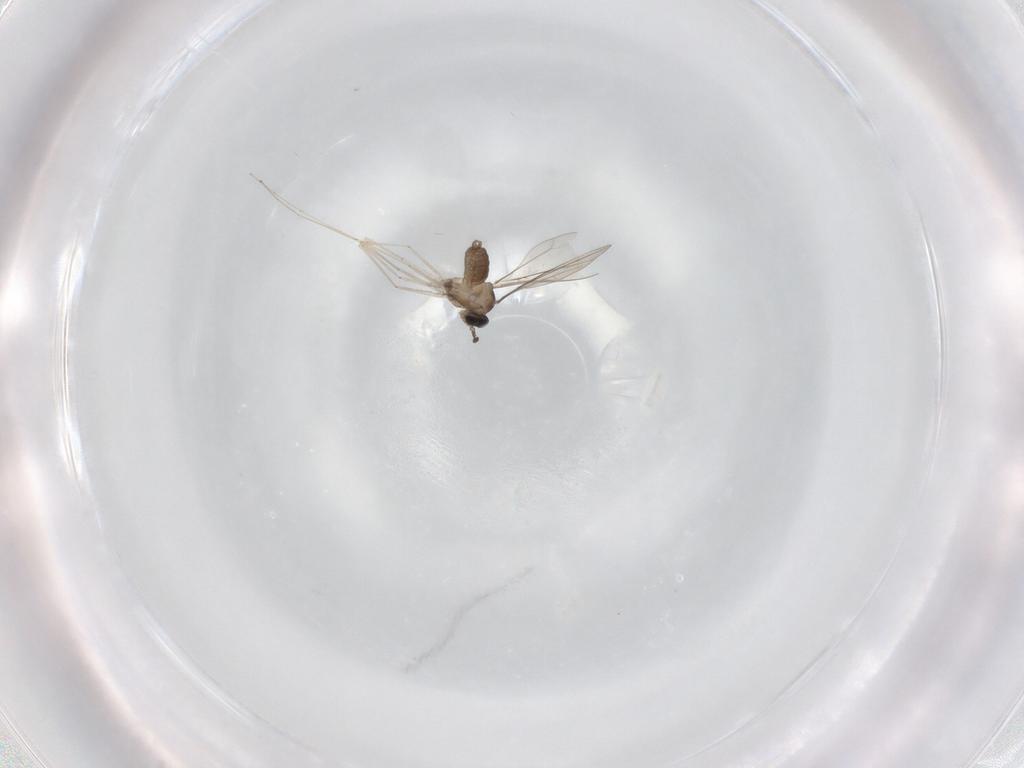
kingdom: Animalia
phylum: Arthropoda
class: Insecta
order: Diptera
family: Cecidomyiidae
